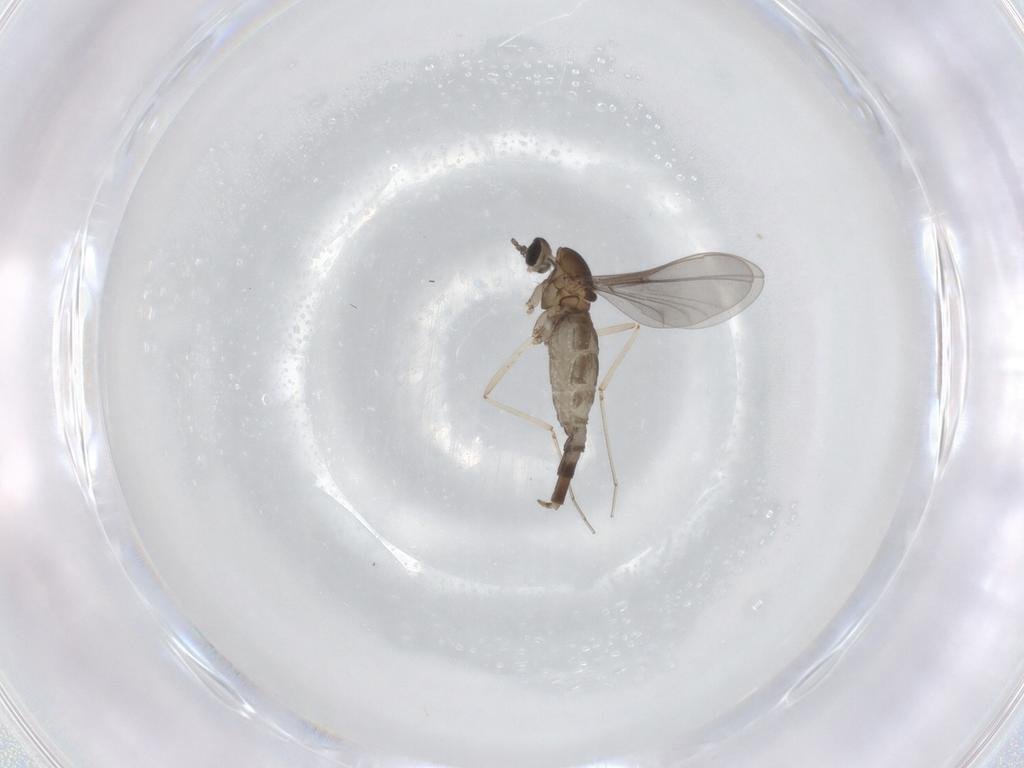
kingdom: Animalia
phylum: Arthropoda
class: Insecta
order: Diptera
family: Cecidomyiidae
